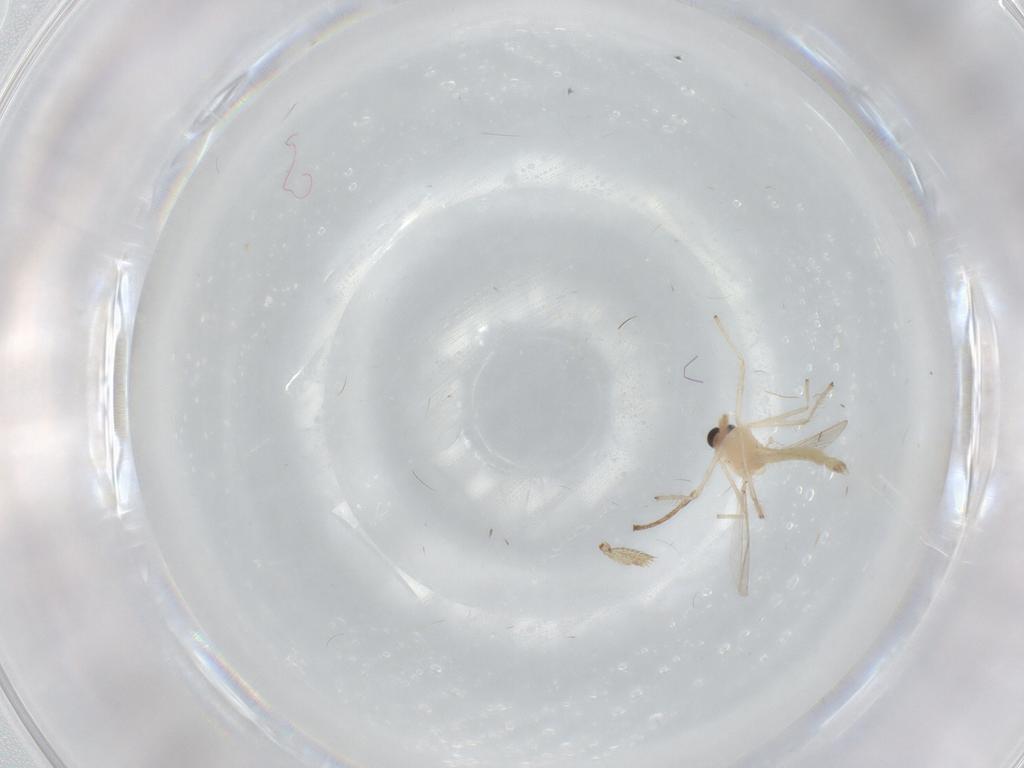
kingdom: Animalia
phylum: Arthropoda
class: Insecta
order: Diptera
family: Chironomidae
